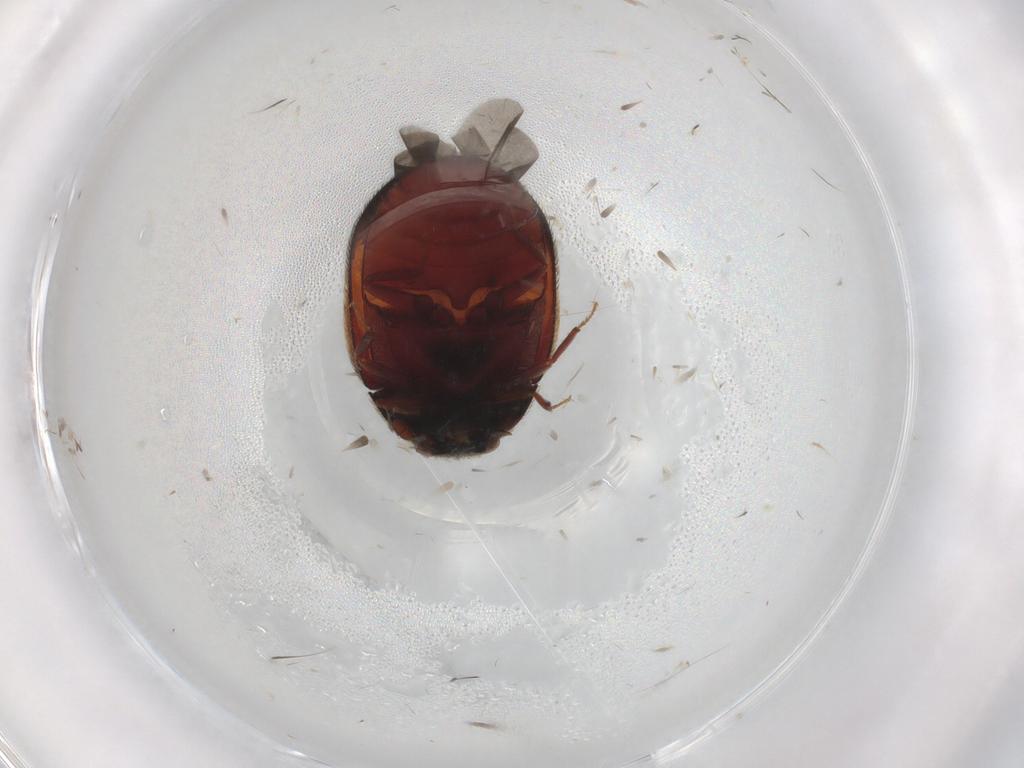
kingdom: Animalia
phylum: Arthropoda
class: Insecta
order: Coleoptera
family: Dermestidae
